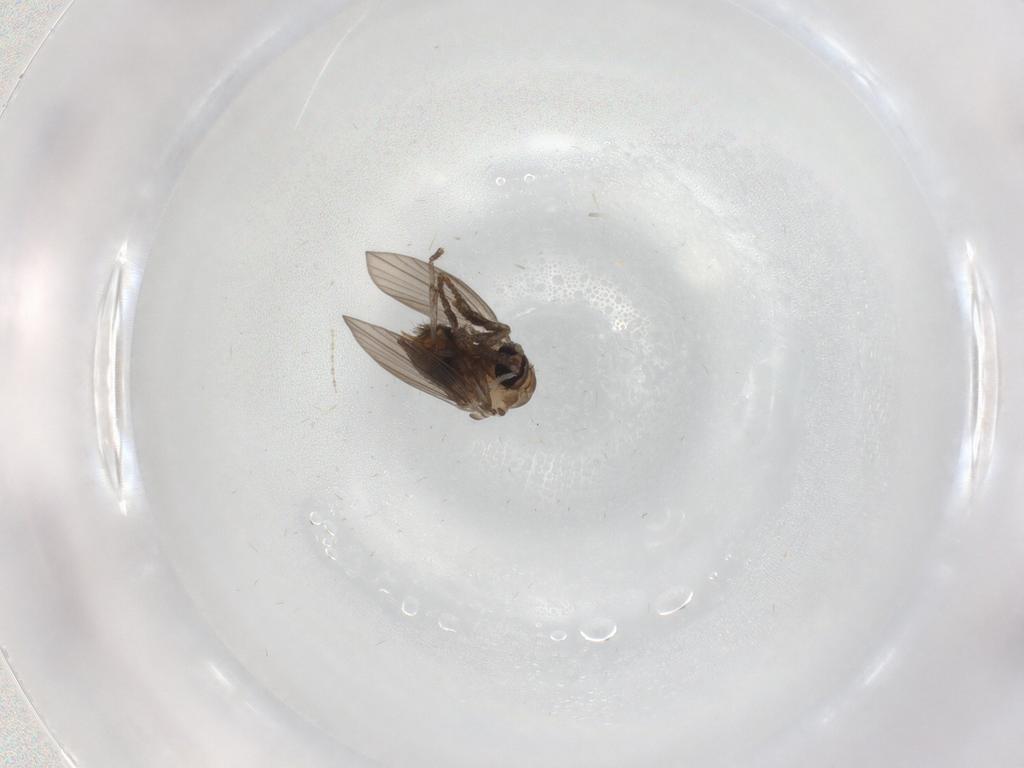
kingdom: Animalia
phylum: Arthropoda
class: Insecta
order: Diptera
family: Psychodidae
